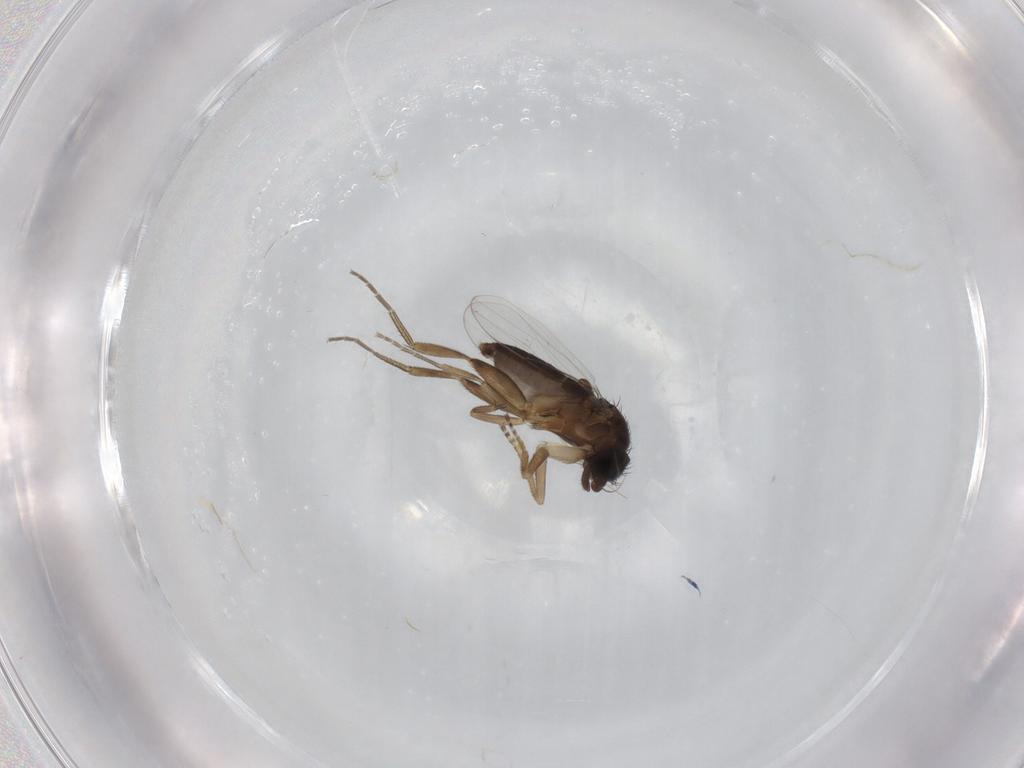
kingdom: Animalia
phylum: Arthropoda
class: Insecta
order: Diptera
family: Phoridae
